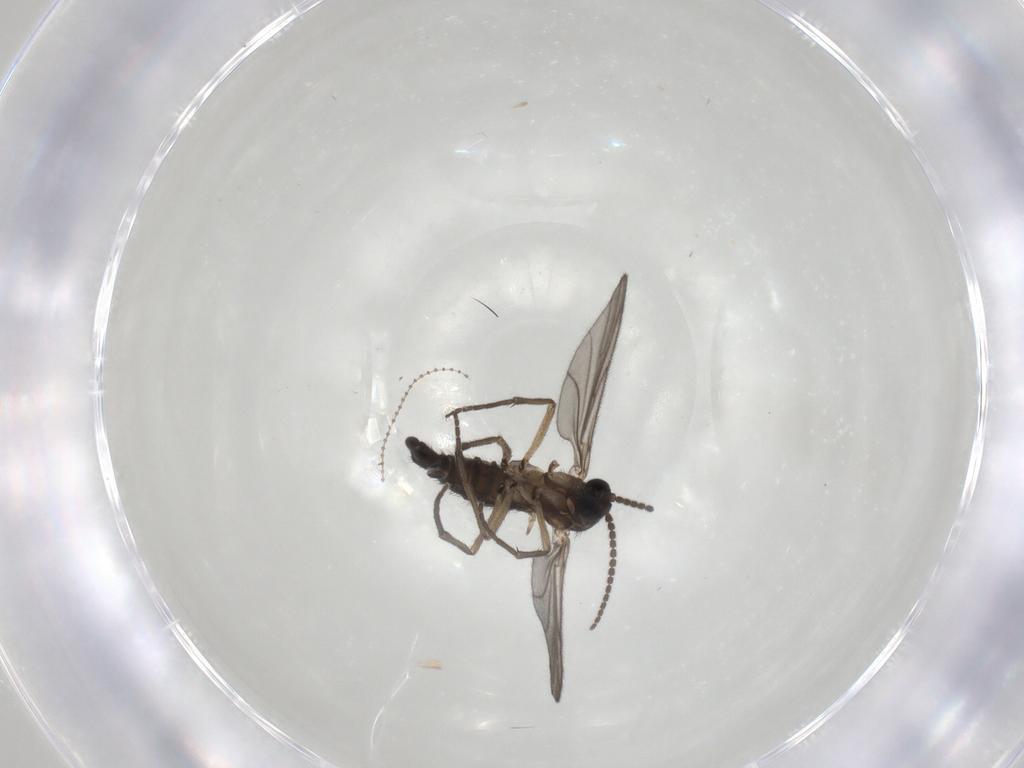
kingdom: Animalia
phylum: Arthropoda
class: Insecta
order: Diptera
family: Sciaridae
